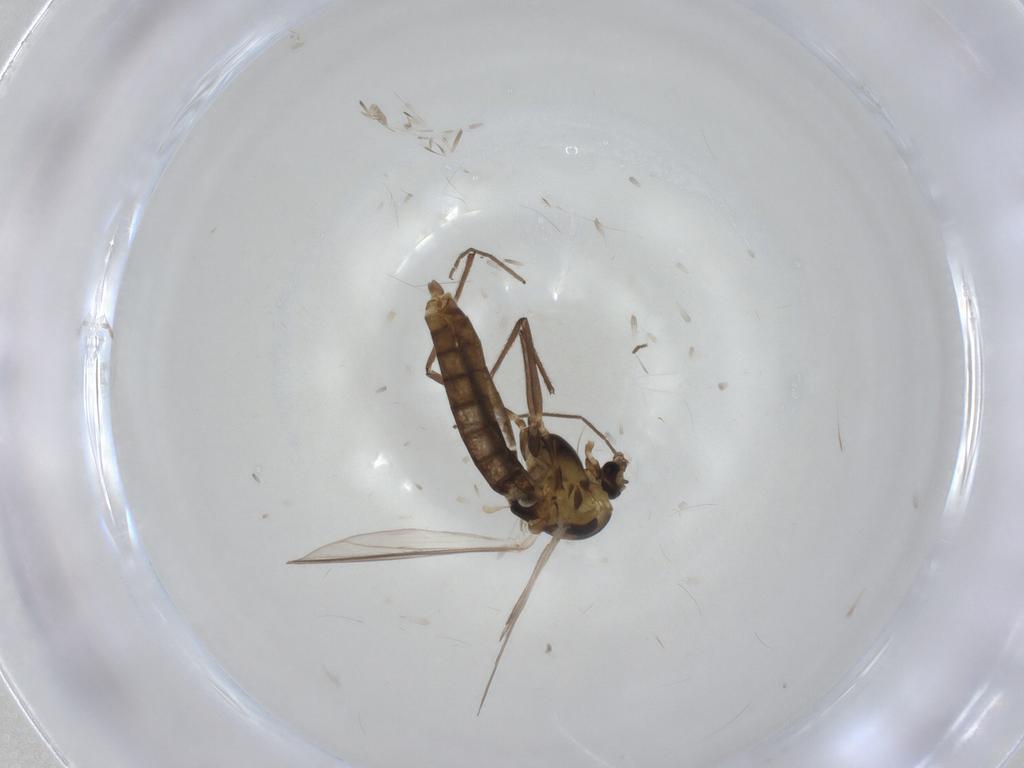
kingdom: Animalia
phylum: Arthropoda
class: Insecta
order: Diptera
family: Chironomidae
